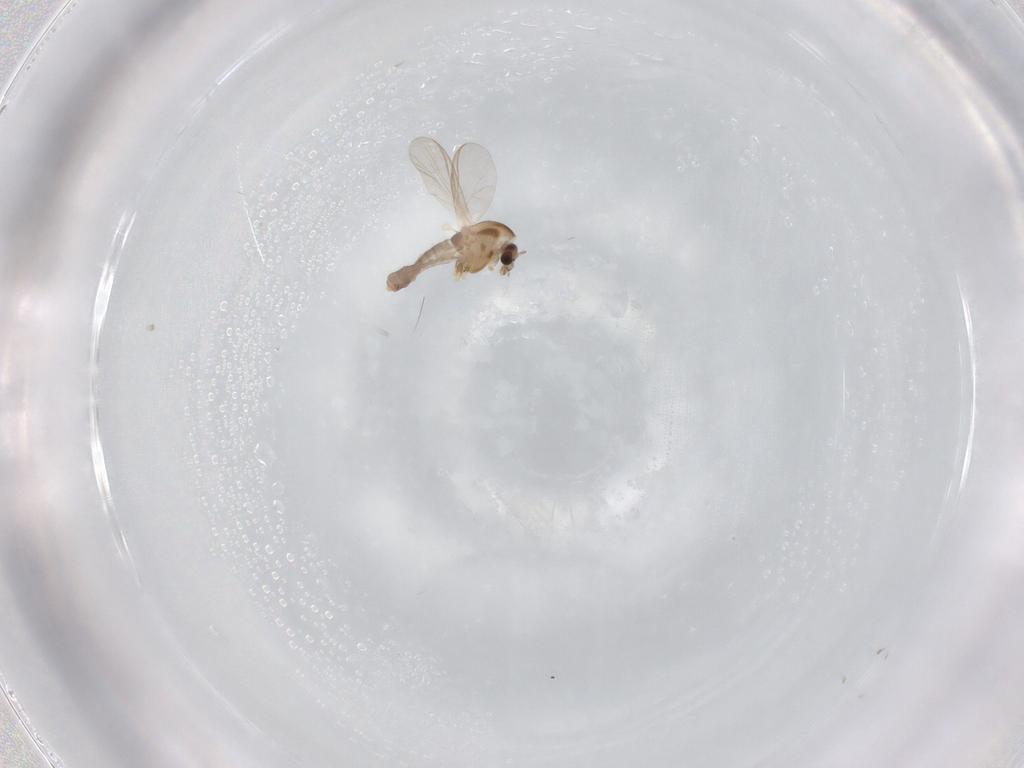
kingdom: Animalia
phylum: Arthropoda
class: Insecta
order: Diptera
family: Chironomidae
